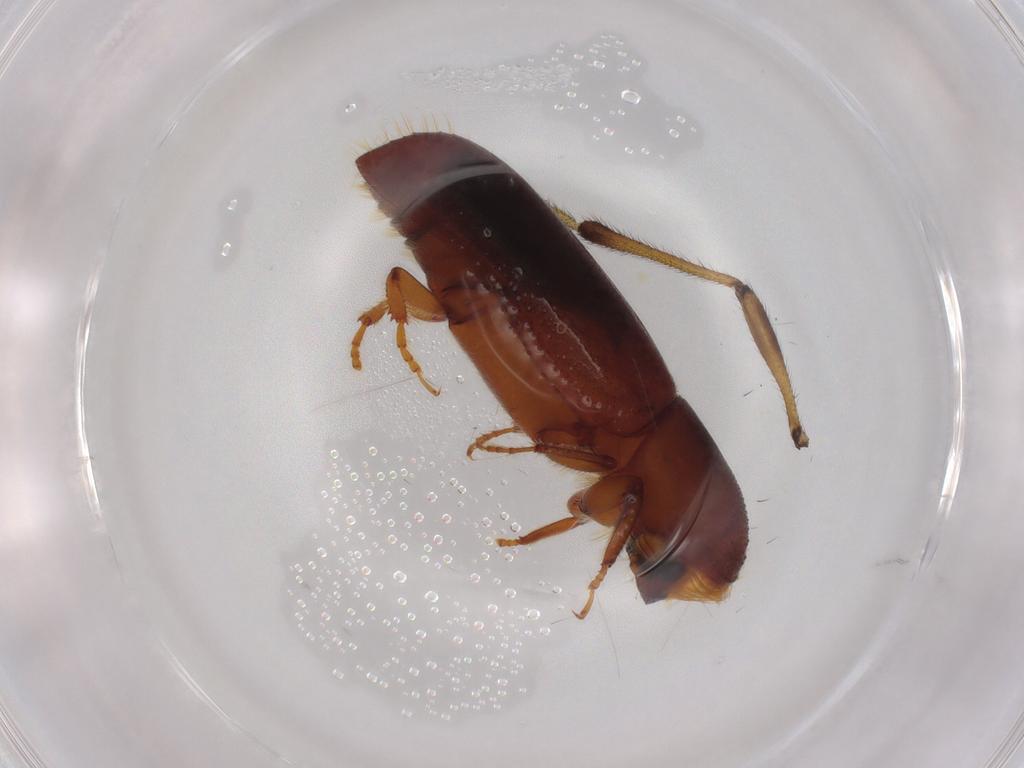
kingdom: Animalia
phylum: Arthropoda
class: Insecta
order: Coleoptera
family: Curculionidae
